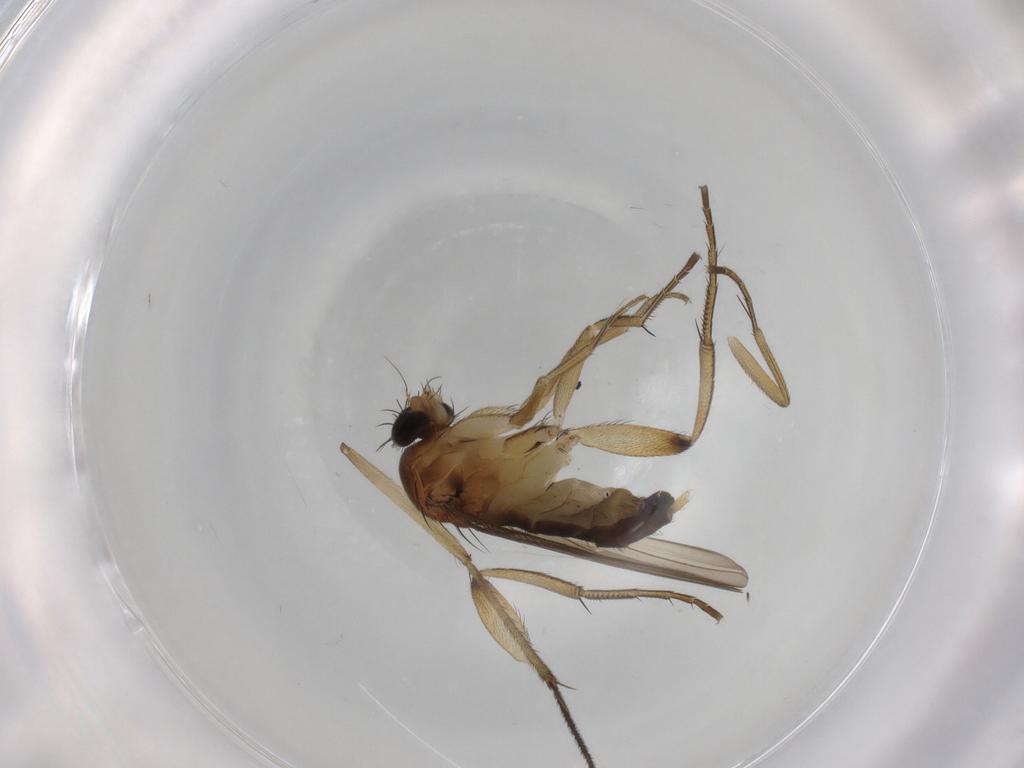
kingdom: Animalia
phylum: Arthropoda
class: Insecta
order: Diptera
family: Phoridae
